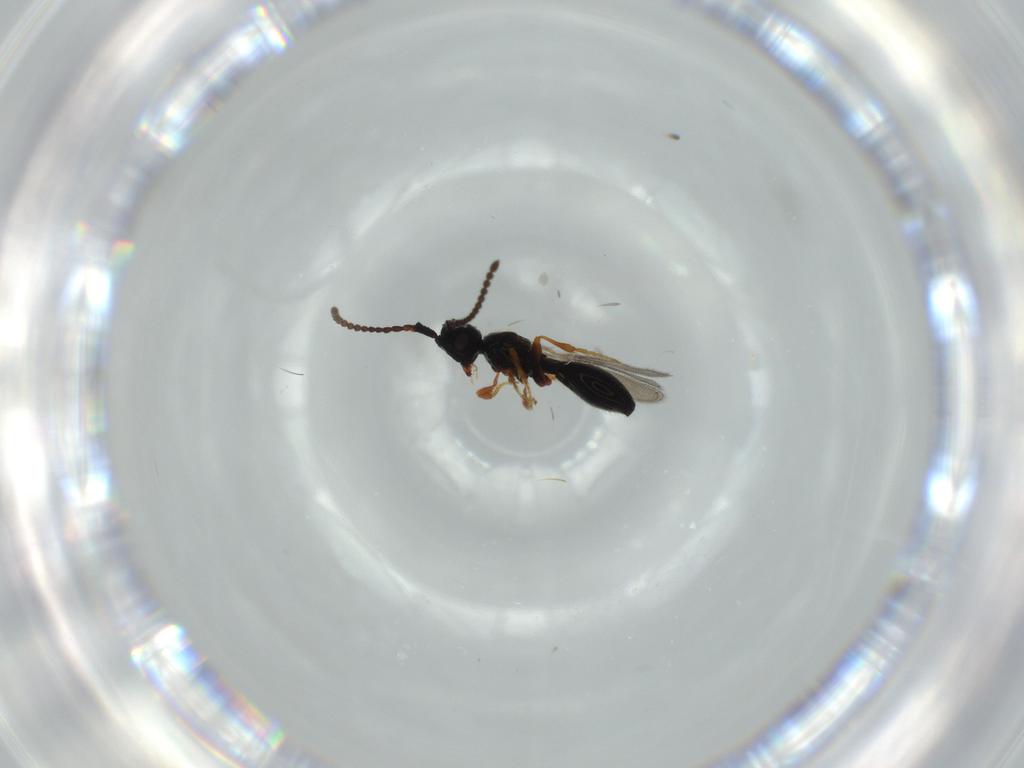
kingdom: Animalia
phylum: Arthropoda
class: Insecta
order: Hymenoptera
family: Diapriidae
